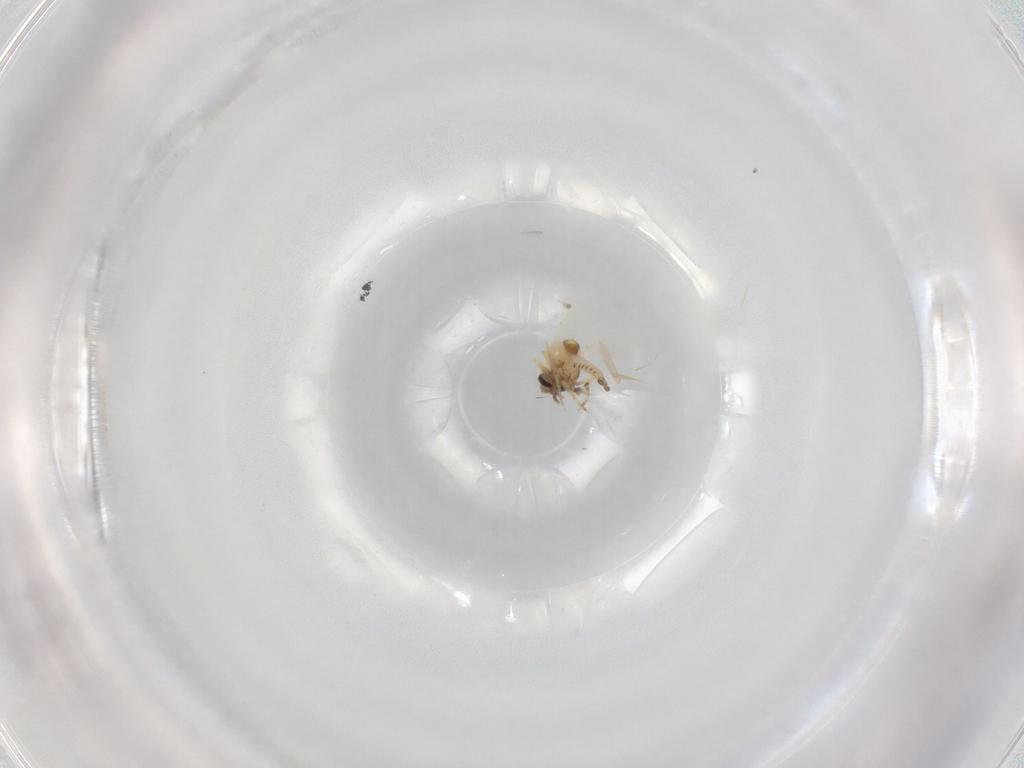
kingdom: Animalia
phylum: Arthropoda
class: Insecta
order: Diptera
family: Ceratopogonidae
